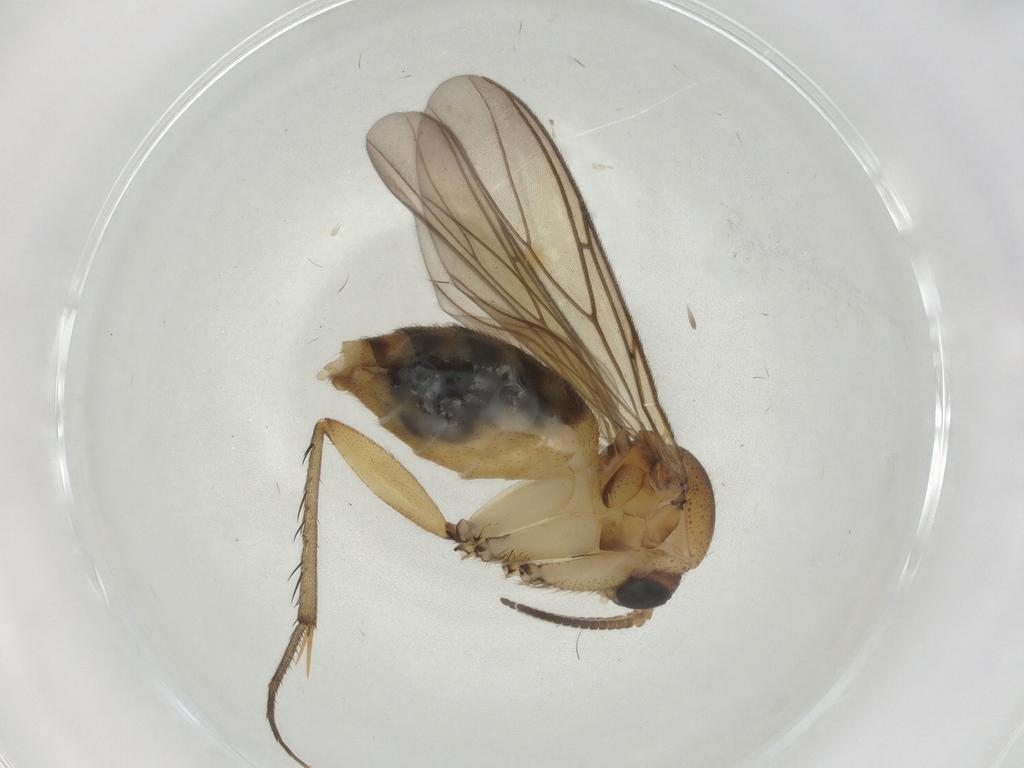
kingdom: Animalia
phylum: Arthropoda
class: Insecta
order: Diptera
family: Mycetophilidae
